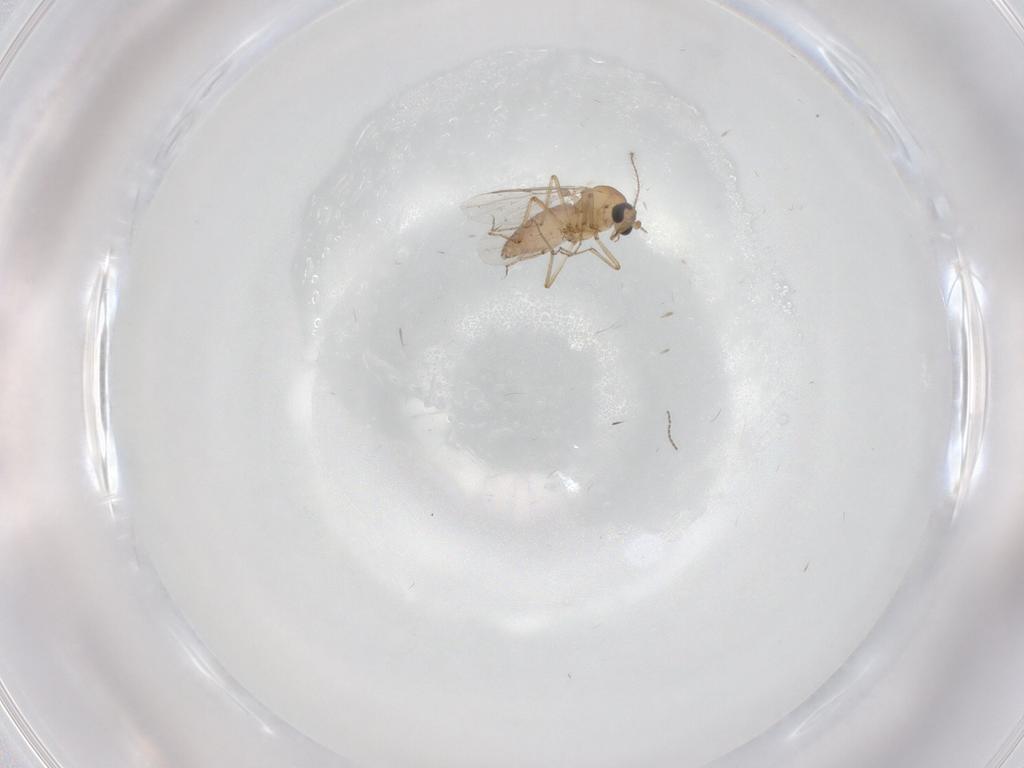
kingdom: Animalia
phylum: Arthropoda
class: Insecta
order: Diptera
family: Ceratopogonidae
